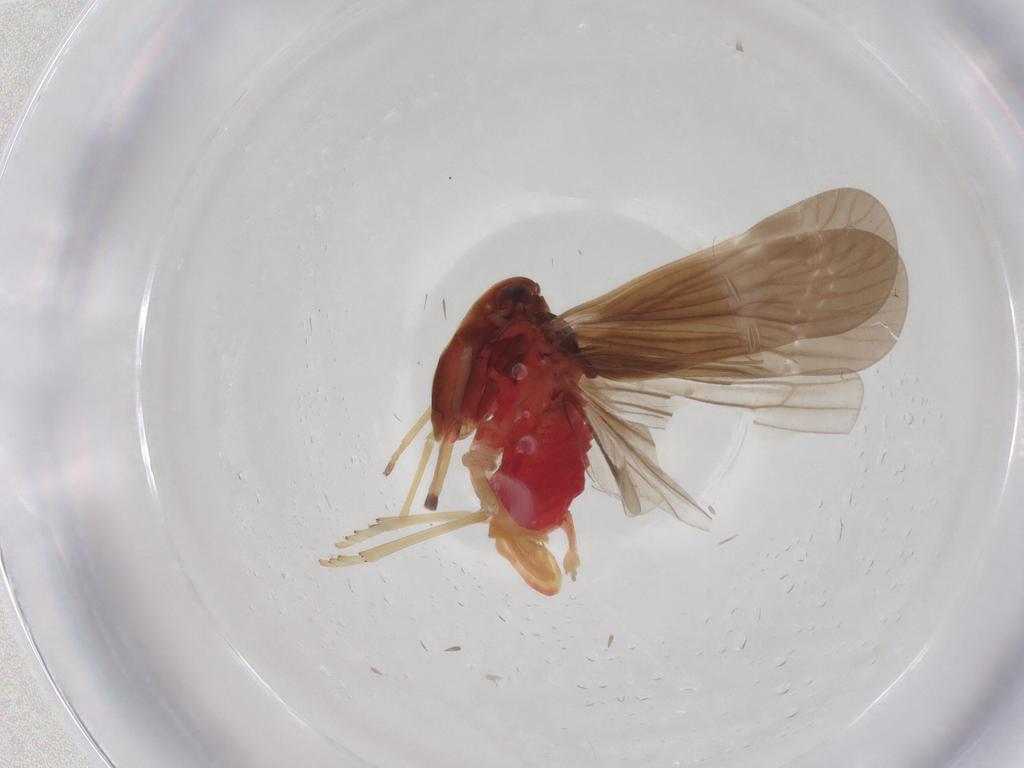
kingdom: Animalia
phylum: Arthropoda
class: Insecta
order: Hemiptera
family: Derbidae
